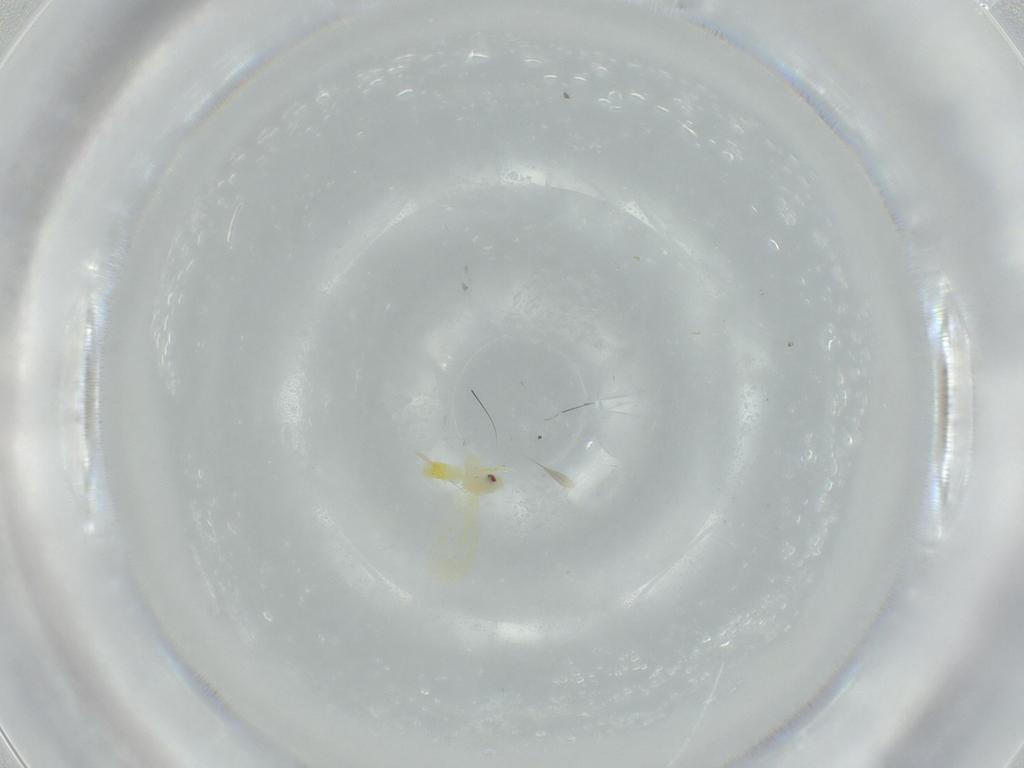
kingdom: Animalia
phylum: Arthropoda
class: Insecta
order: Hemiptera
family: Aleyrodidae
